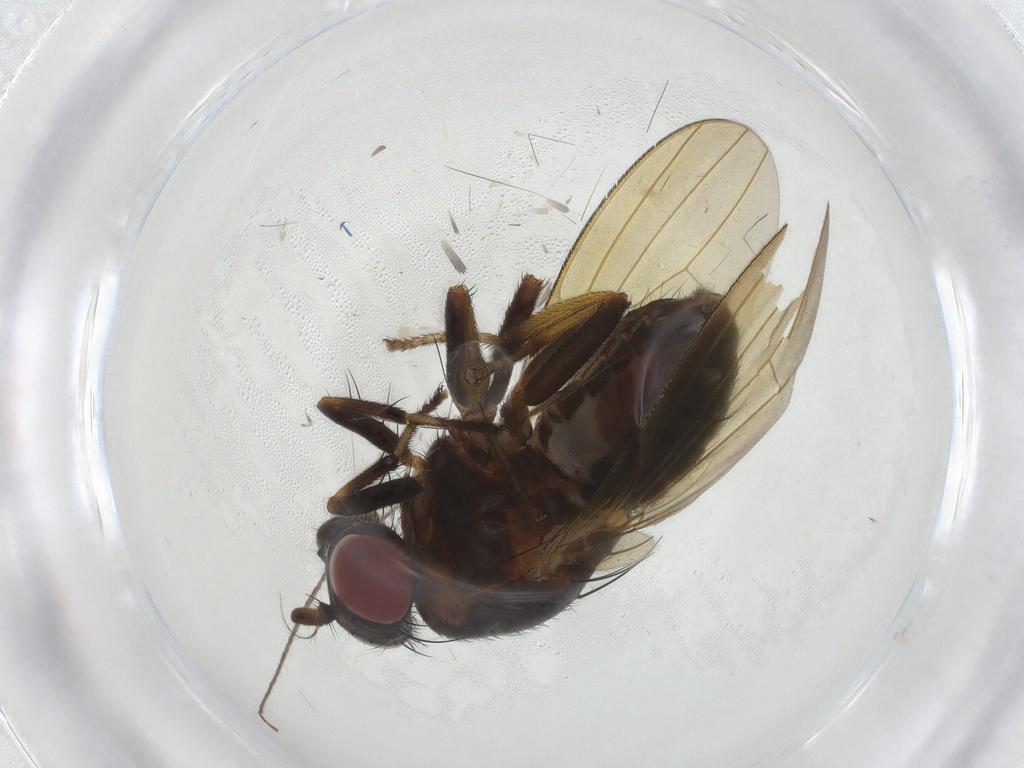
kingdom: Animalia
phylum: Arthropoda
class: Insecta
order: Diptera
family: Limoniidae
